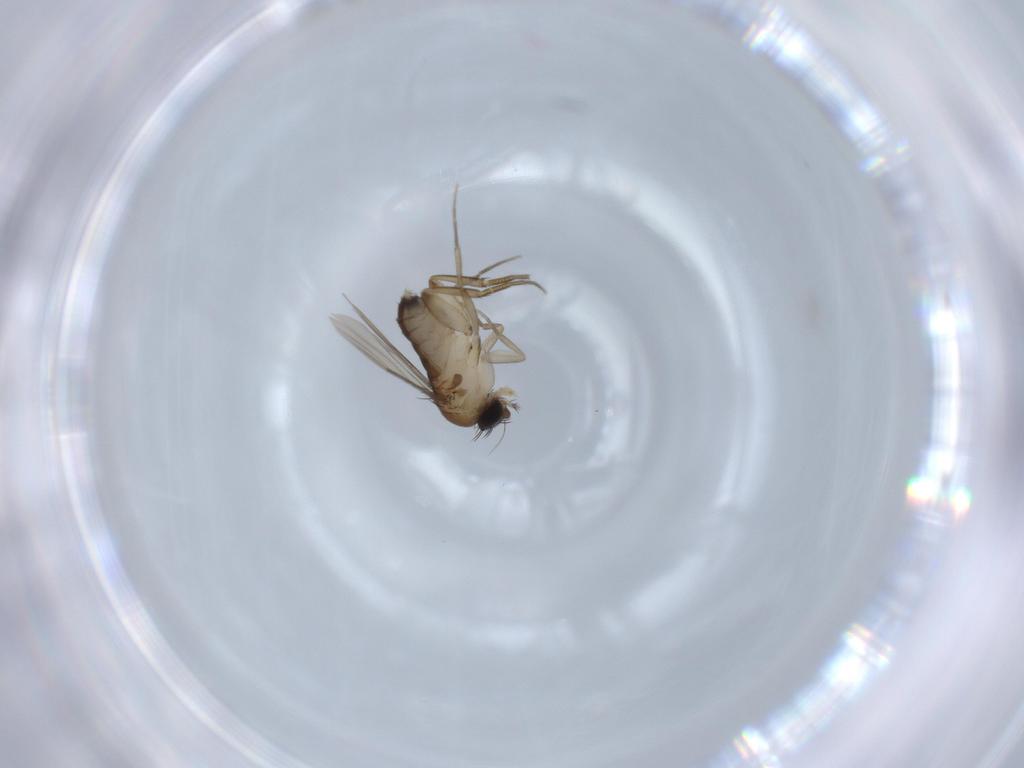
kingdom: Animalia
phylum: Arthropoda
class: Insecta
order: Diptera
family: Phoridae
